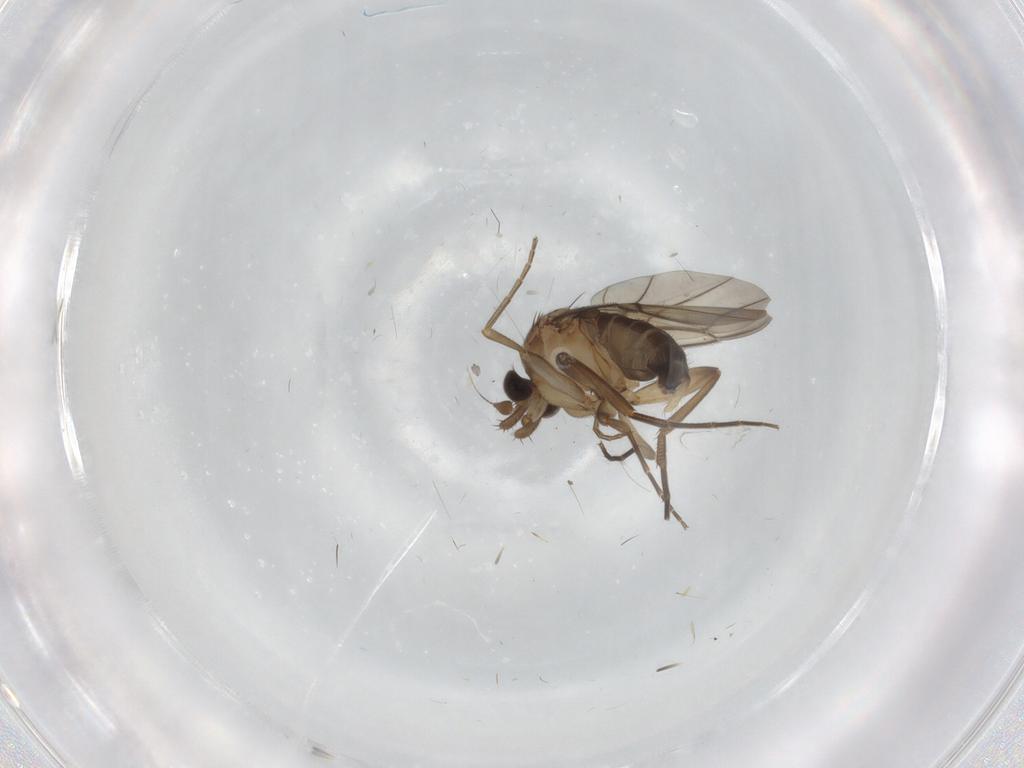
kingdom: Animalia
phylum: Arthropoda
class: Insecta
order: Diptera
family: Phoridae
